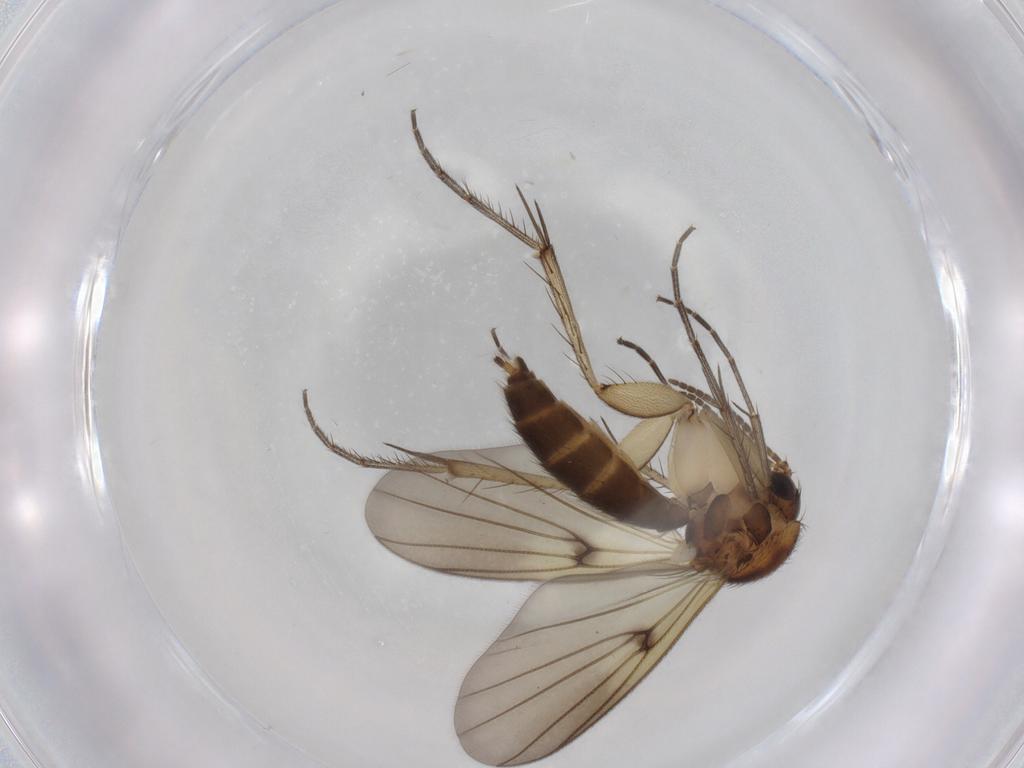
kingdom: Animalia
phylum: Arthropoda
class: Insecta
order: Diptera
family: Mycetophilidae
